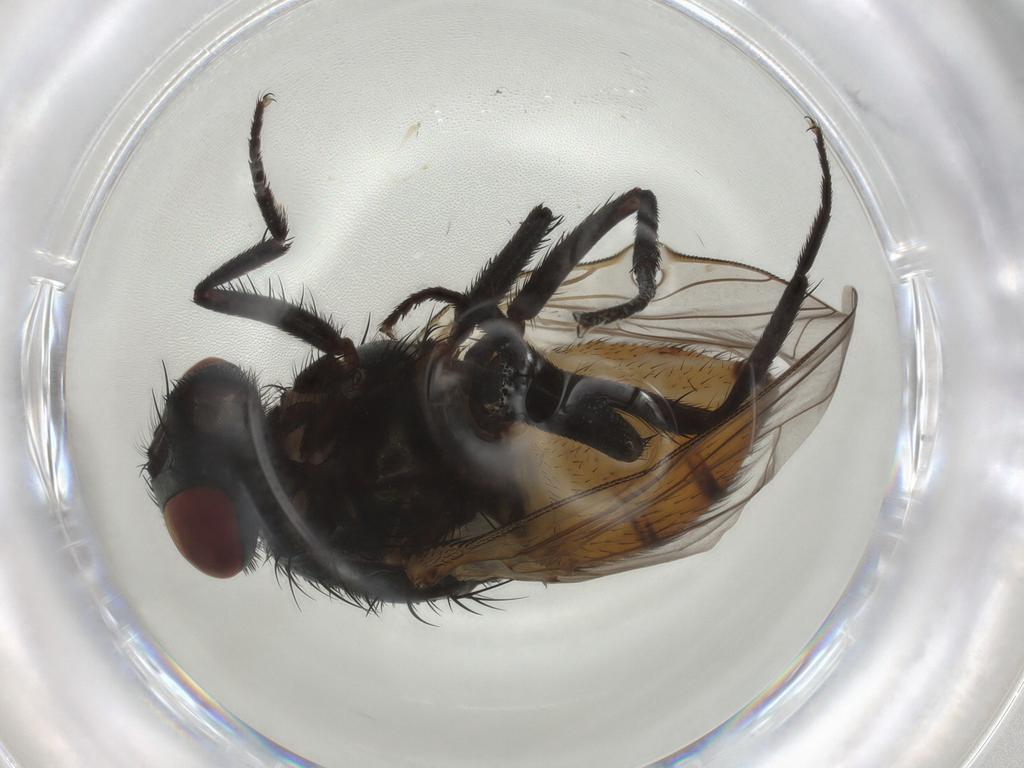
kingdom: Animalia
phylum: Arthropoda
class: Insecta
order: Diptera
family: Muscidae
